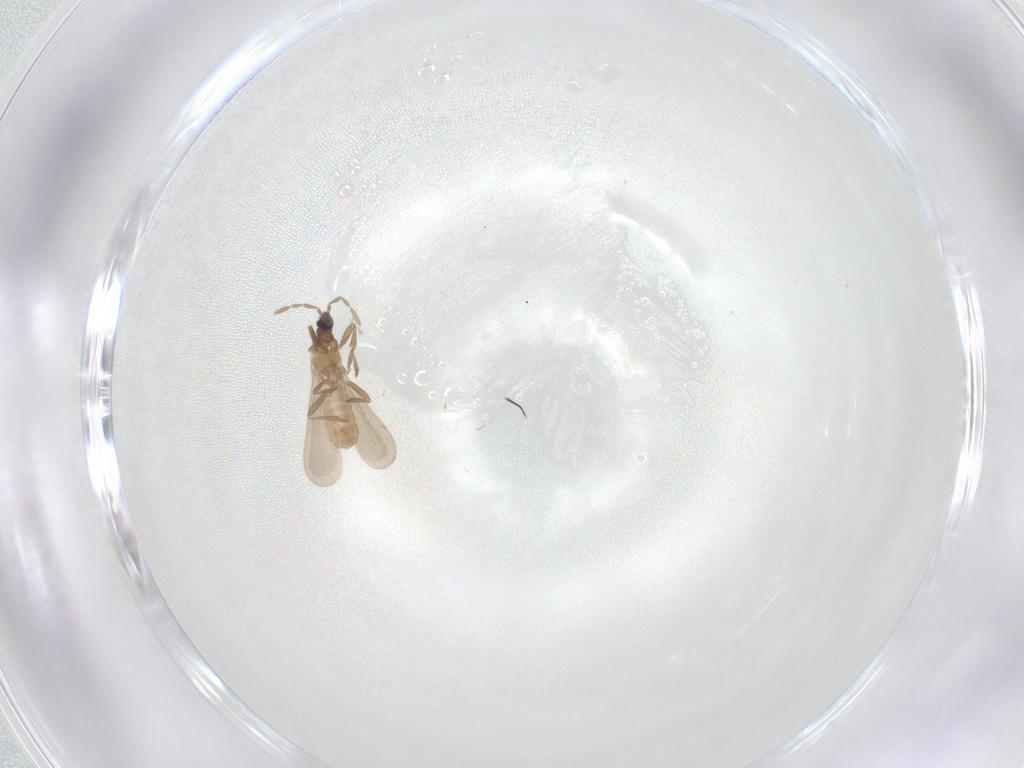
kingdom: Animalia
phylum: Arthropoda
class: Insecta
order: Hemiptera
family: Enicocephalidae
